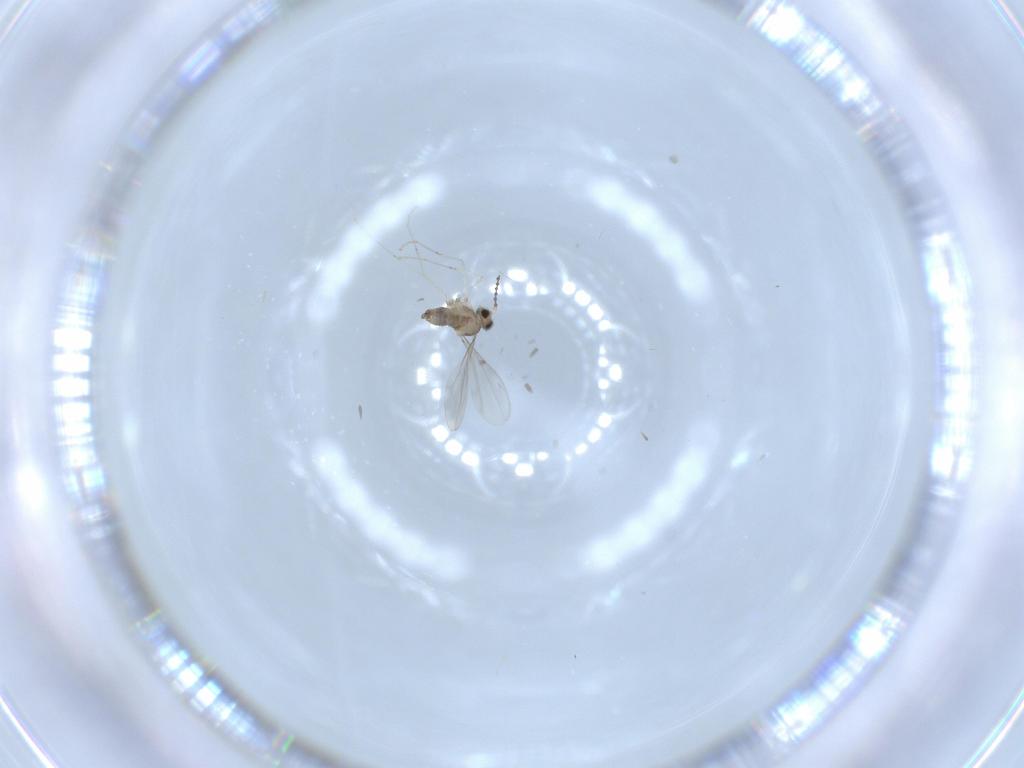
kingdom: Animalia
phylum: Arthropoda
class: Insecta
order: Diptera
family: Cecidomyiidae
